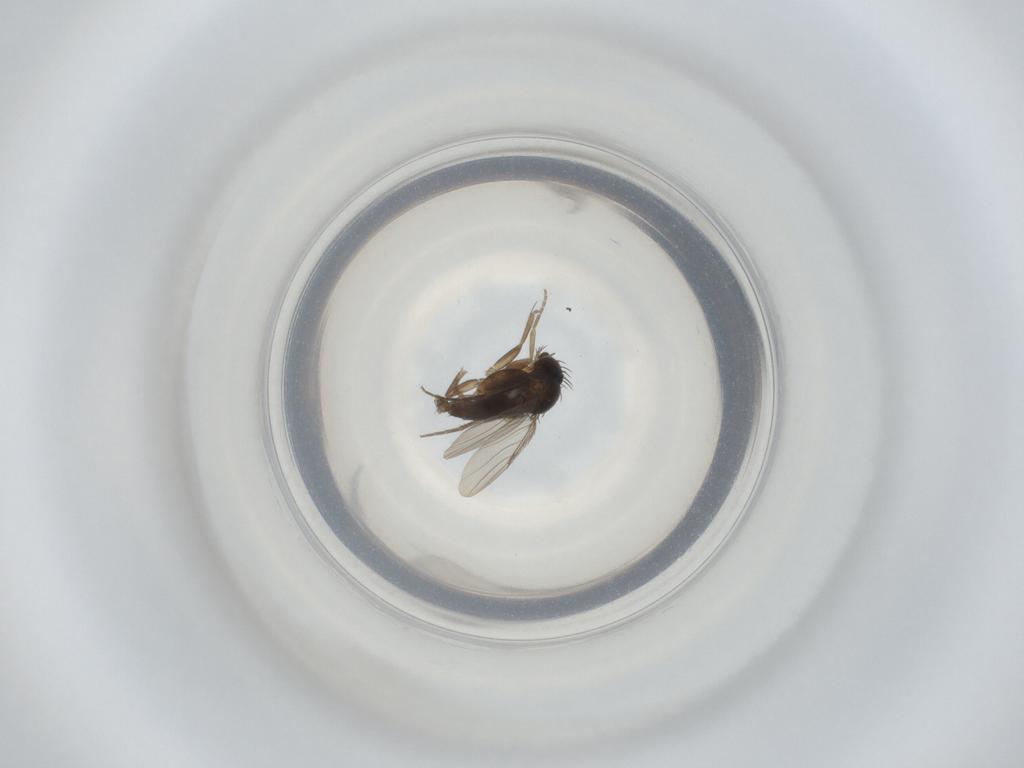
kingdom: Animalia
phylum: Arthropoda
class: Insecta
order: Diptera
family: Phoridae
